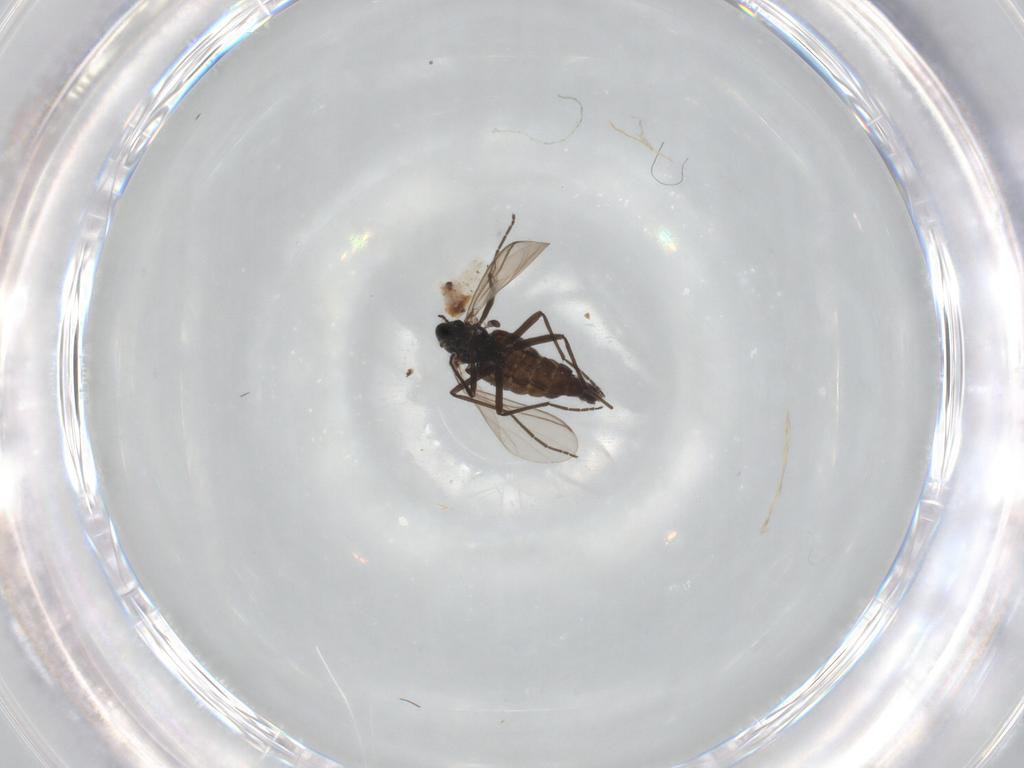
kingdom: Animalia
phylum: Arthropoda
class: Insecta
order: Diptera
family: Chironomidae
